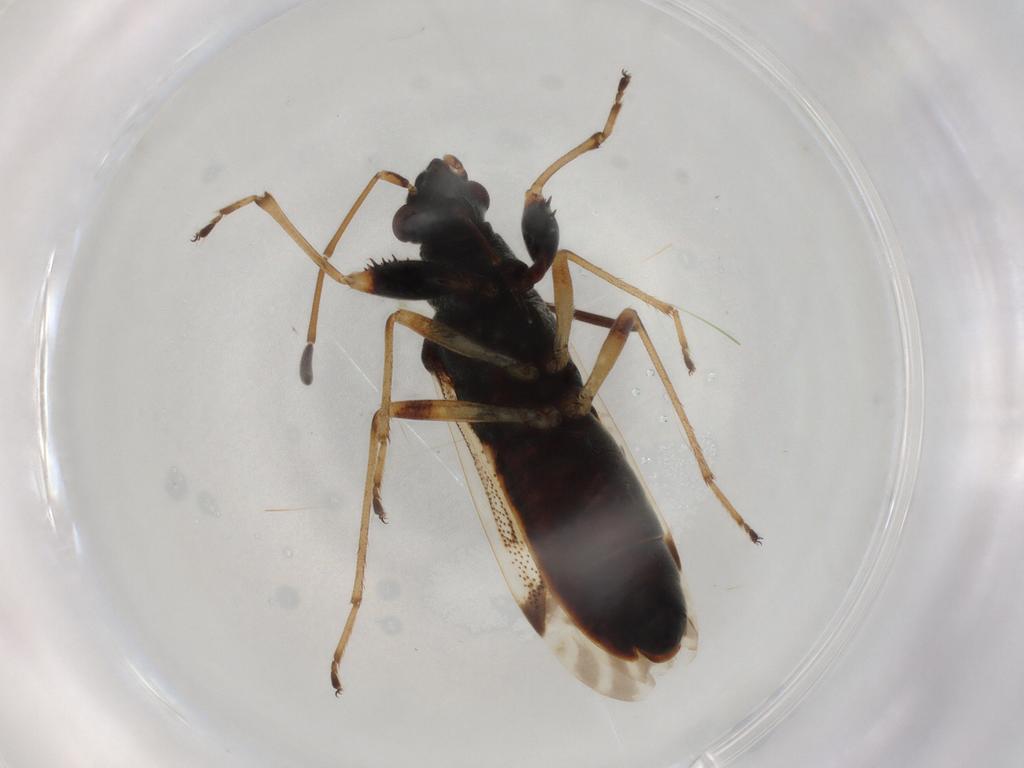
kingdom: Animalia
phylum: Arthropoda
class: Insecta
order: Hemiptera
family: Rhyparochromidae
